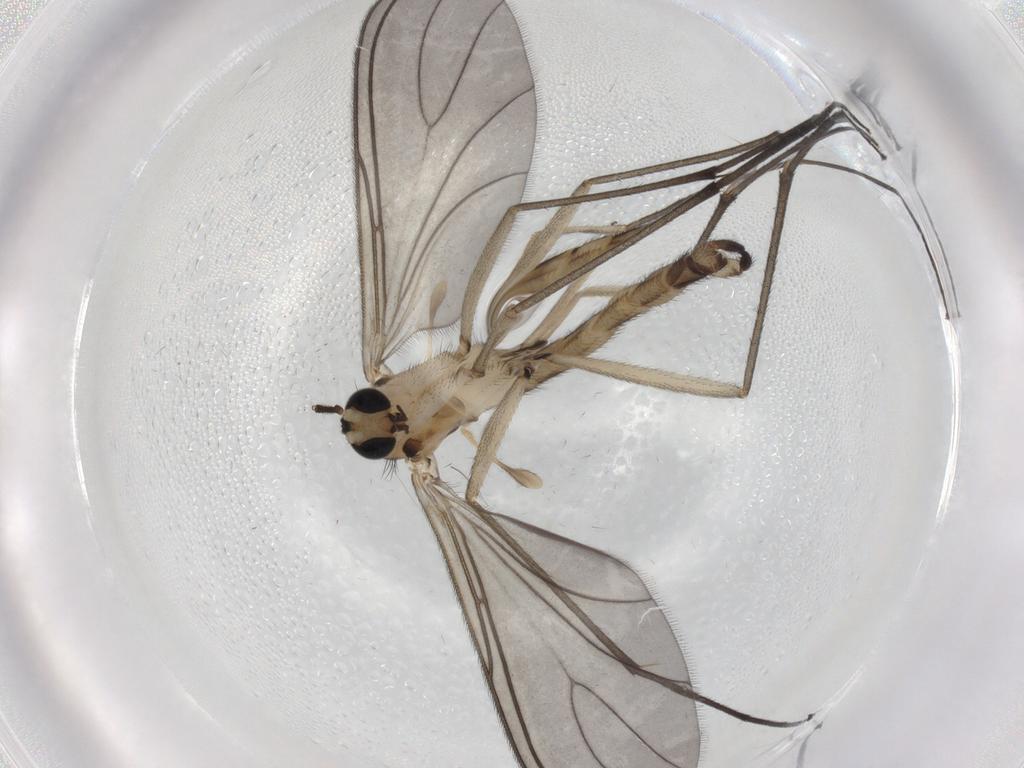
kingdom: Animalia
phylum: Arthropoda
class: Insecta
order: Diptera
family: Sciaridae
